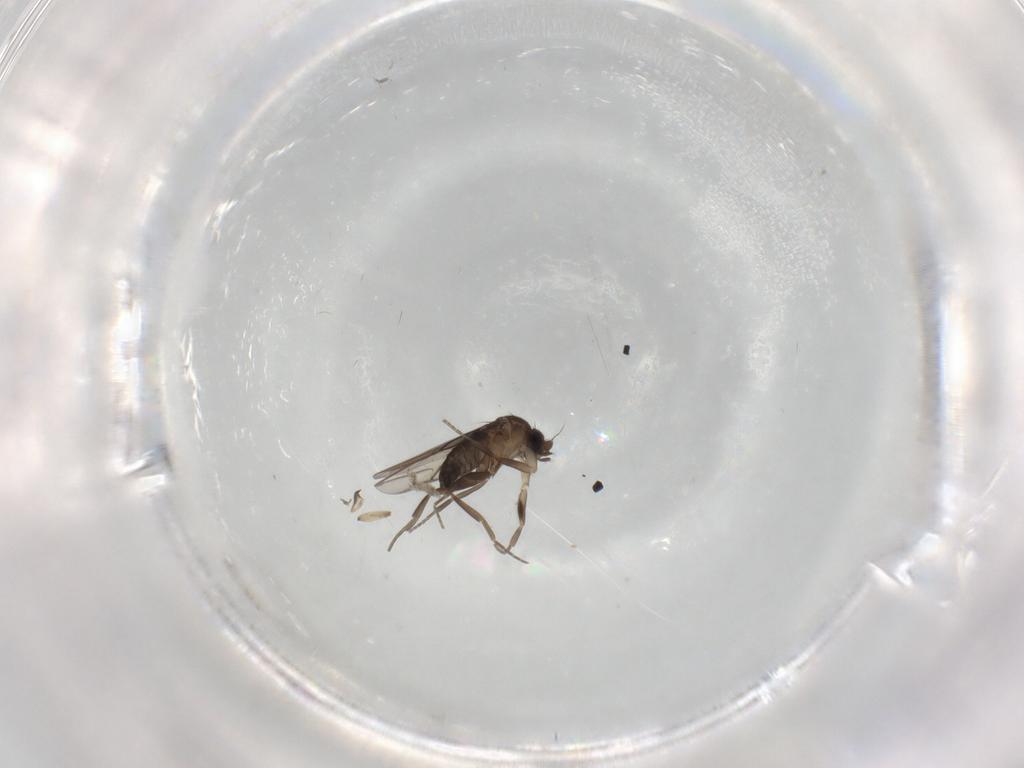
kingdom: Animalia
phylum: Arthropoda
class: Insecta
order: Diptera
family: Phoridae
